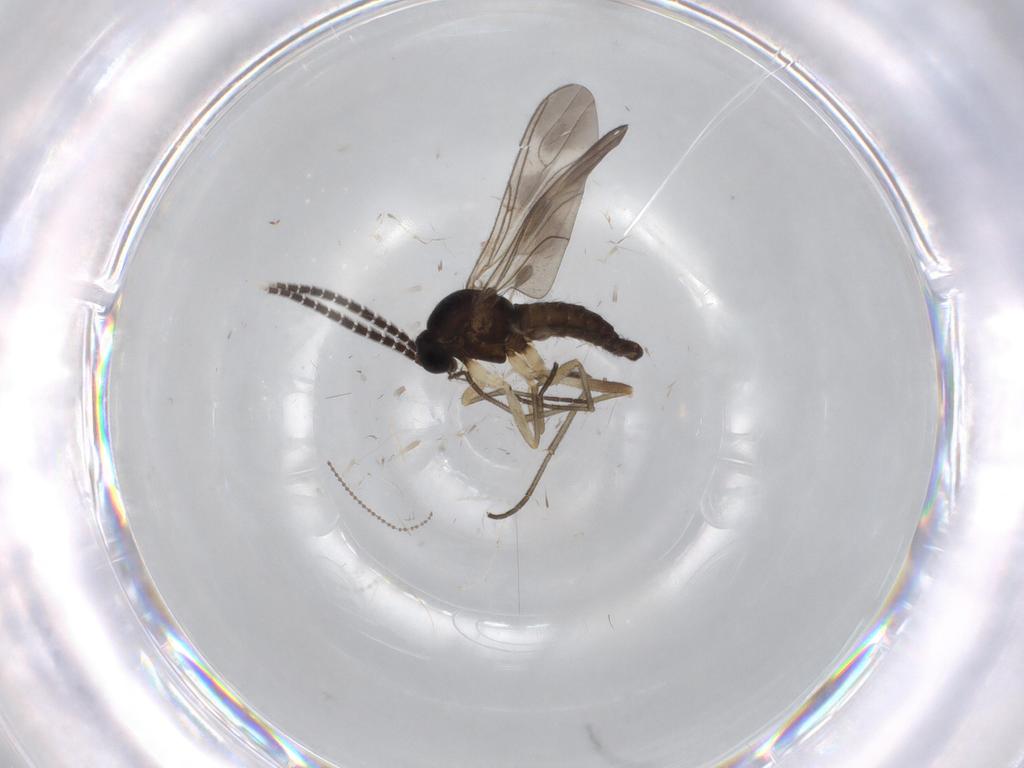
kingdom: Animalia
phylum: Arthropoda
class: Insecta
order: Diptera
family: Sciaridae
